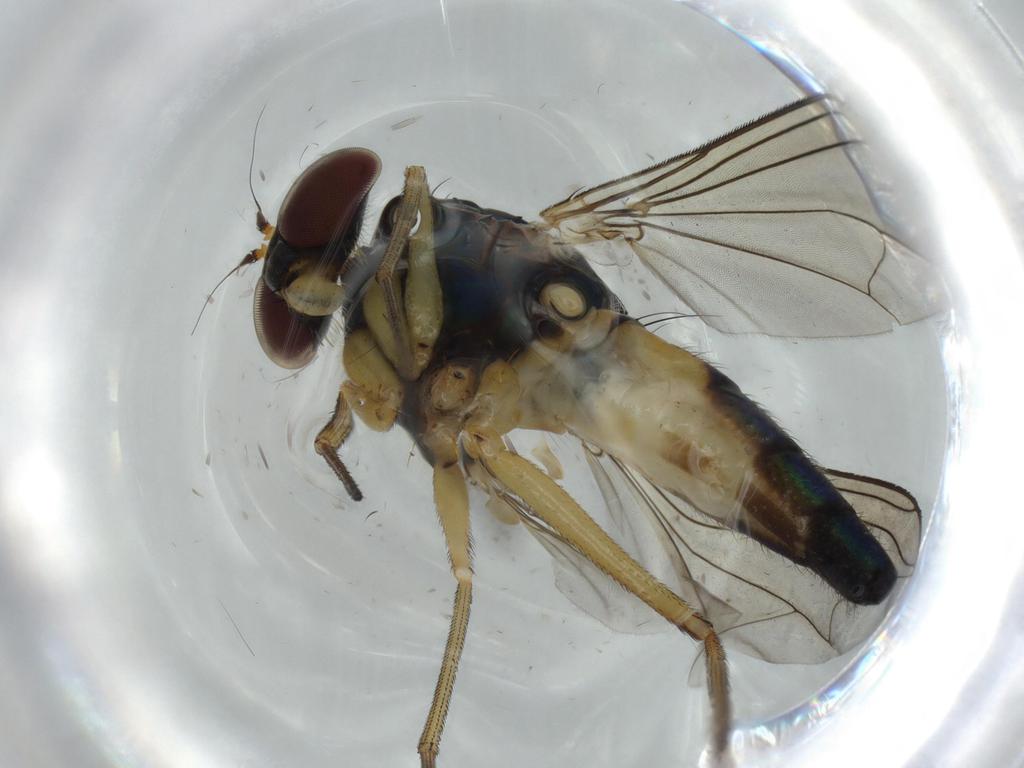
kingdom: Animalia
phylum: Arthropoda
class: Insecta
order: Diptera
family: Dolichopodidae
